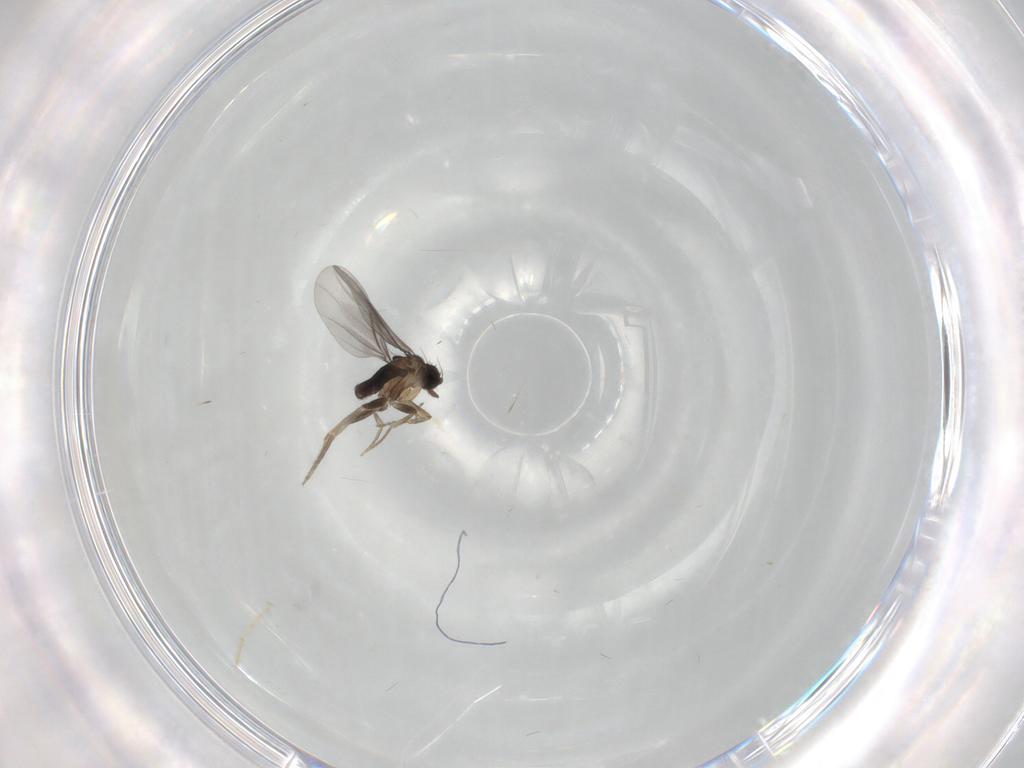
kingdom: Animalia
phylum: Arthropoda
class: Insecta
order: Diptera
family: Chironomidae
